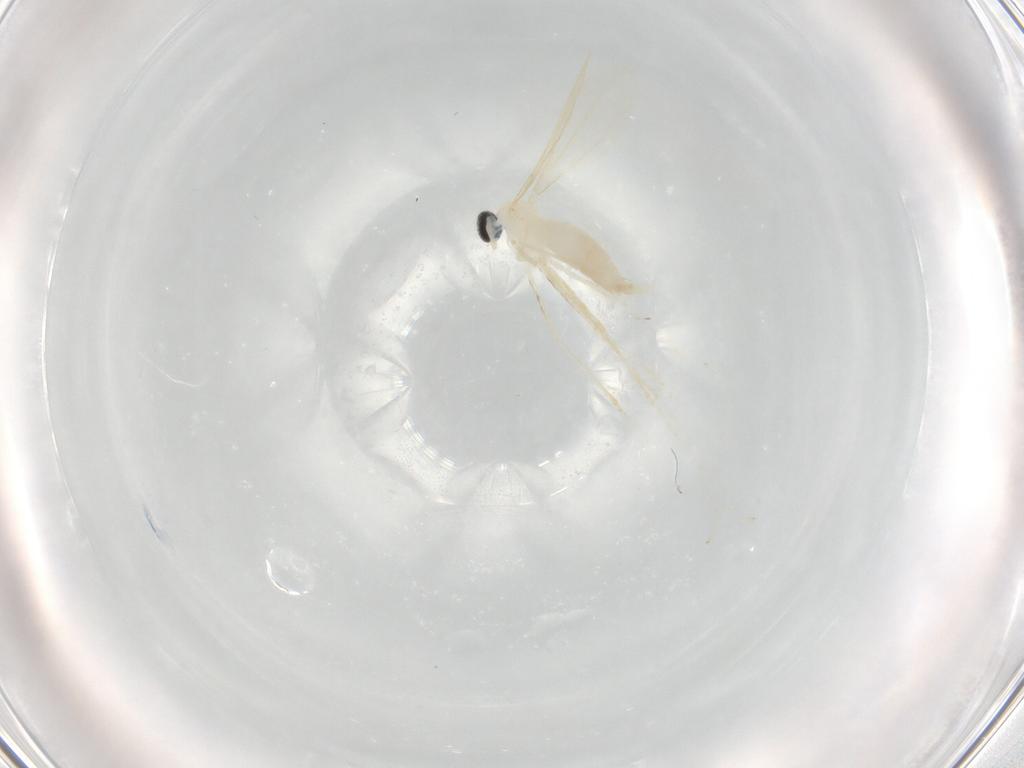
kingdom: Animalia
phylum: Arthropoda
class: Insecta
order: Diptera
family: Cecidomyiidae
